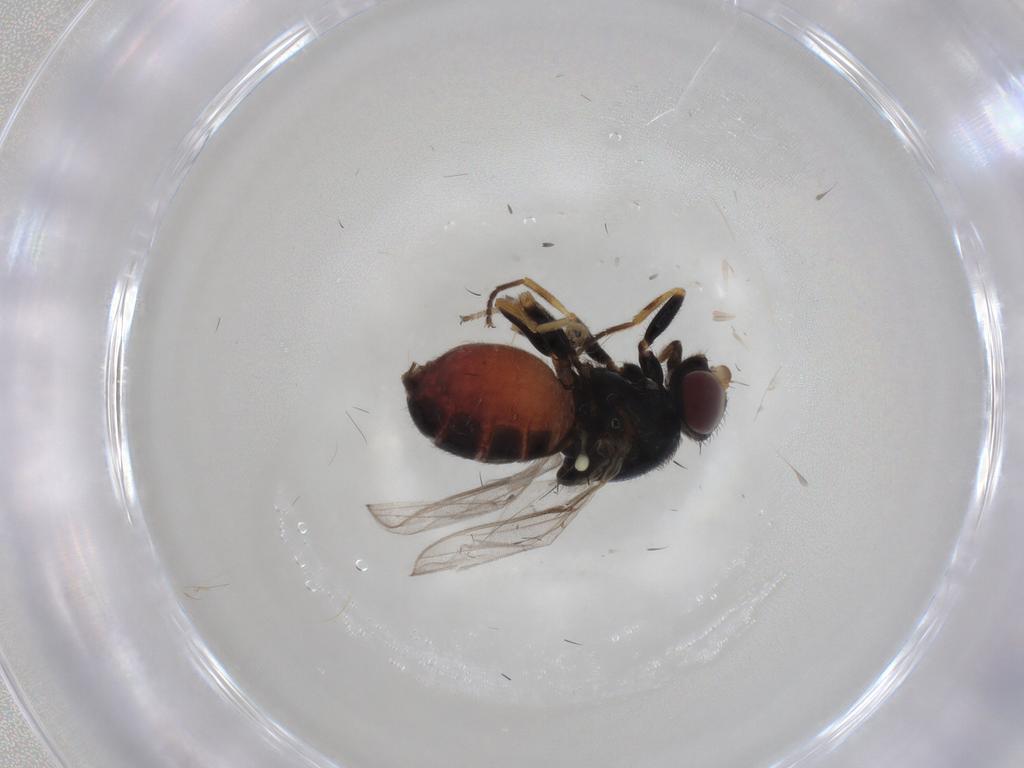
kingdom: Animalia
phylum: Arthropoda
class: Insecta
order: Diptera
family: Chloropidae
